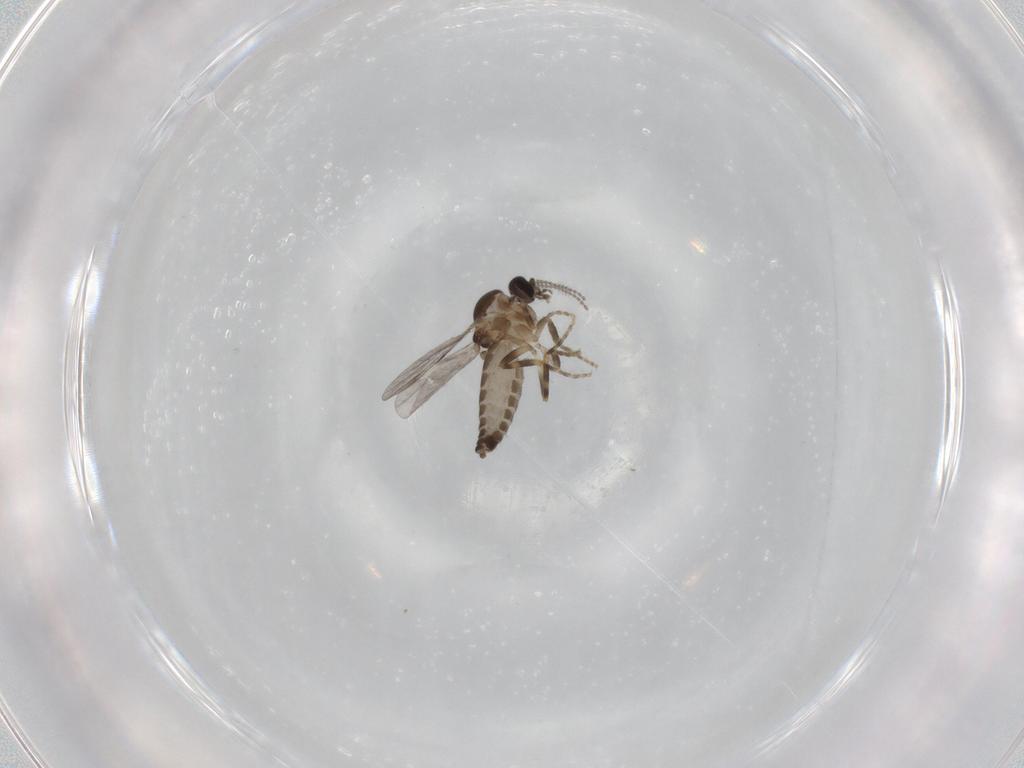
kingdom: Animalia
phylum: Arthropoda
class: Insecta
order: Diptera
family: Ceratopogonidae
